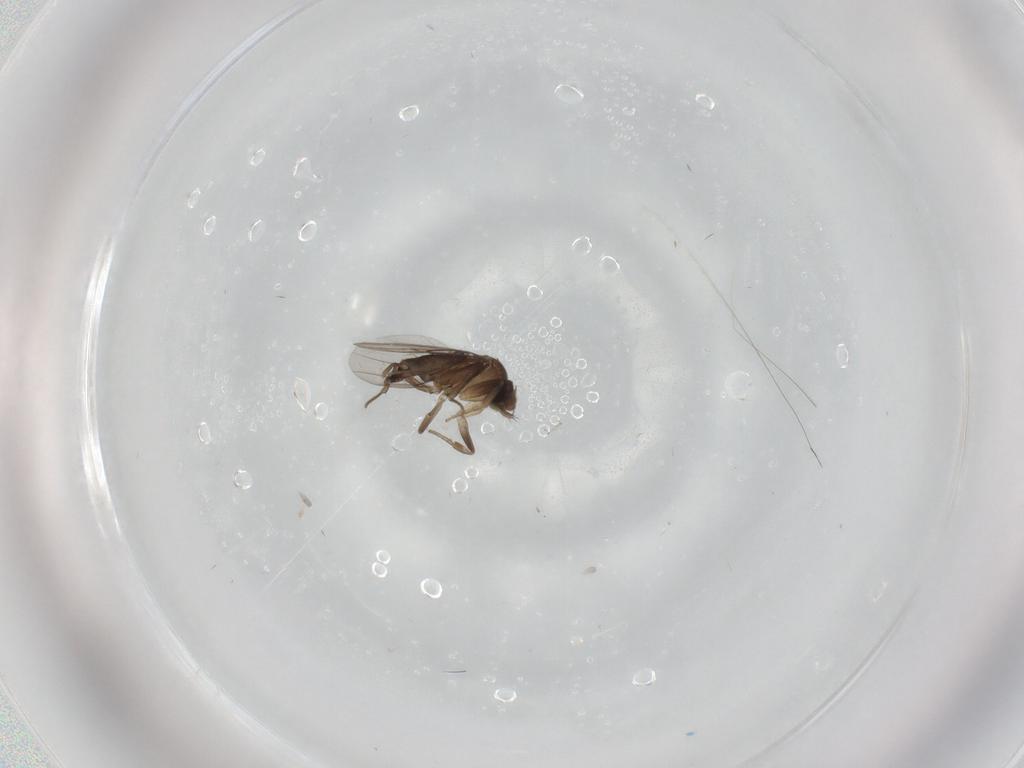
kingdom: Animalia
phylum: Arthropoda
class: Insecta
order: Diptera
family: Phoridae
